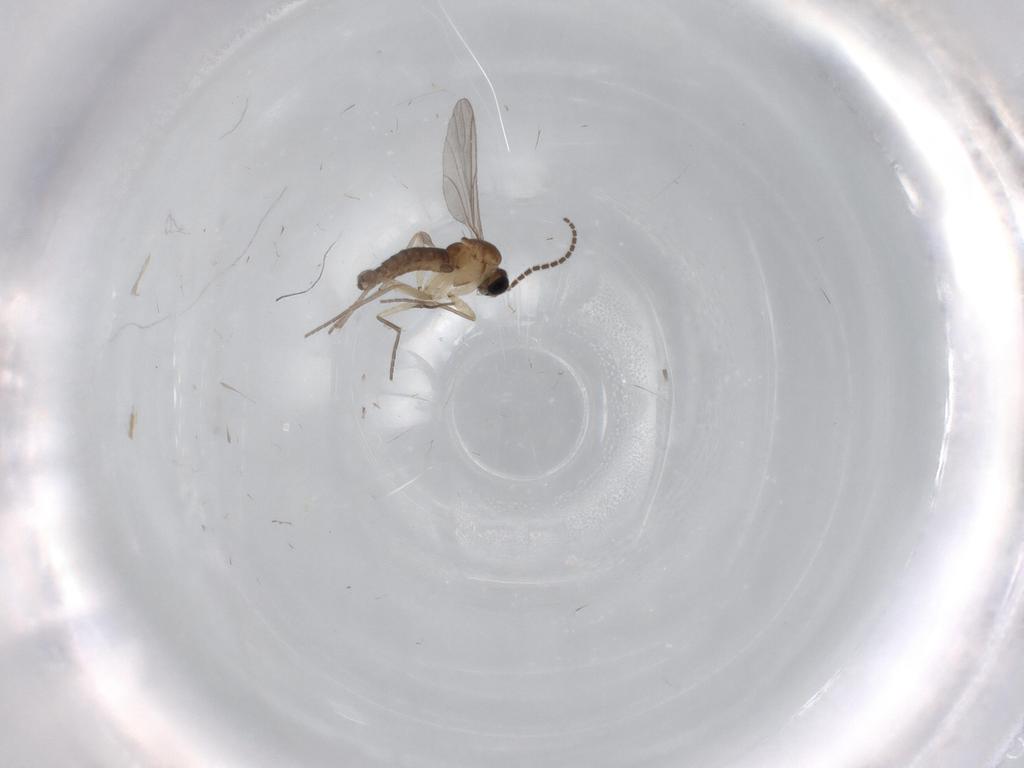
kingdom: Animalia
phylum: Arthropoda
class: Insecta
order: Diptera
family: Sciaridae
